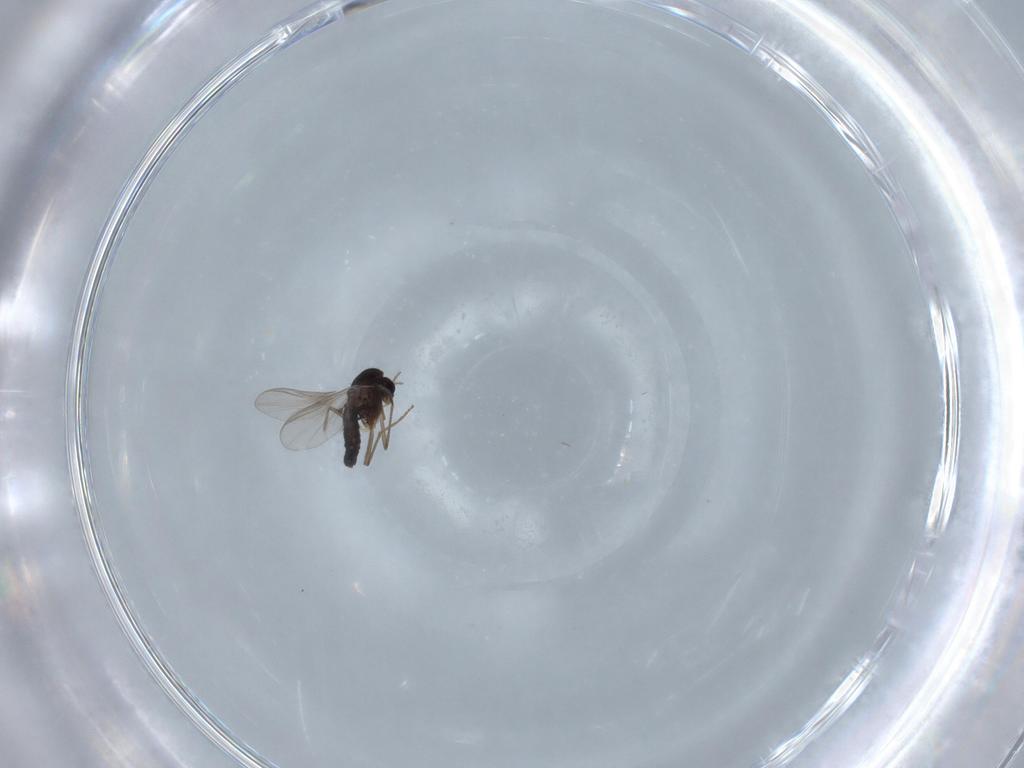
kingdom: Animalia
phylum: Arthropoda
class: Insecta
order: Diptera
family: Chironomidae
